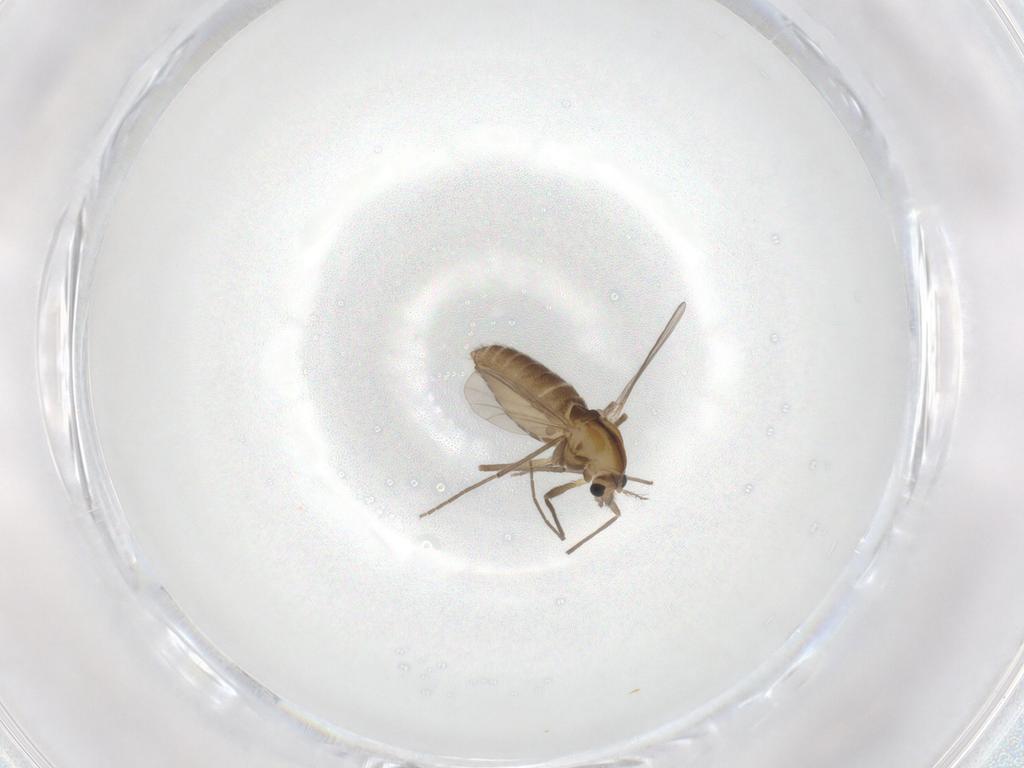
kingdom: Animalia
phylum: Arthropoda
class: Insecta
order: Diptera
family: Chironomidae
